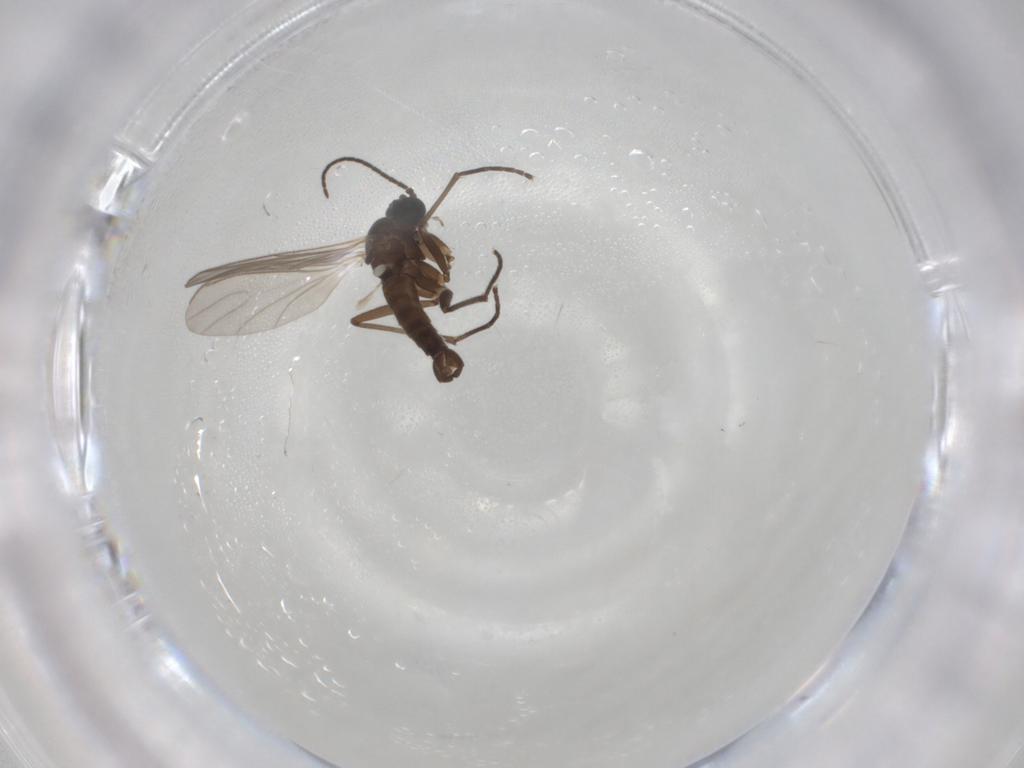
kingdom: Animalia
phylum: Arthropoda
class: Insecta
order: Diptera
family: Sciaridae
